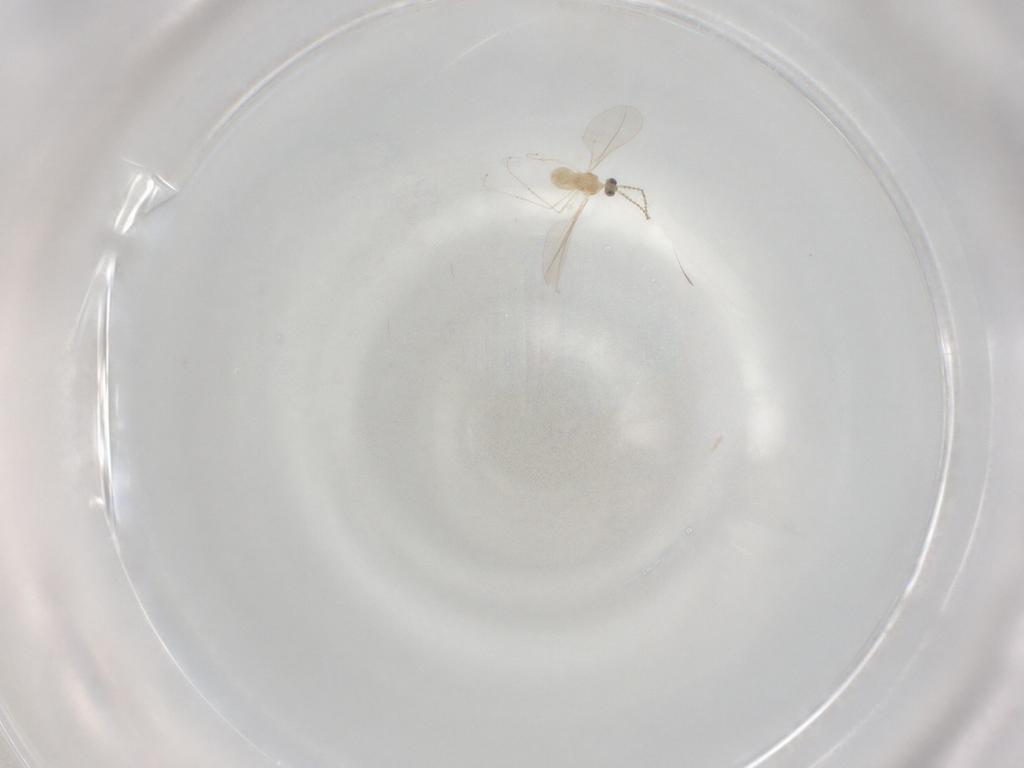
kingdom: Animalia
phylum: Arthropoda
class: Insecta
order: Diptera
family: Cecidomyiidae
